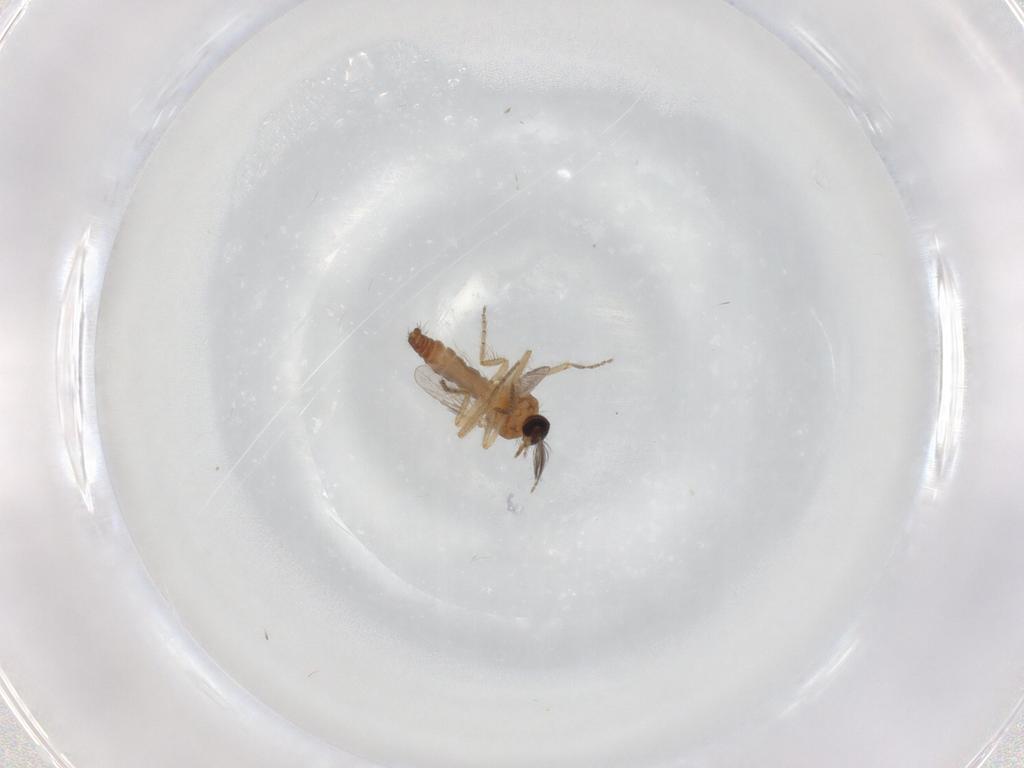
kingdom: Animalia
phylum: Arthropoda
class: Insecta
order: Diptera
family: Ceratopogonidae
